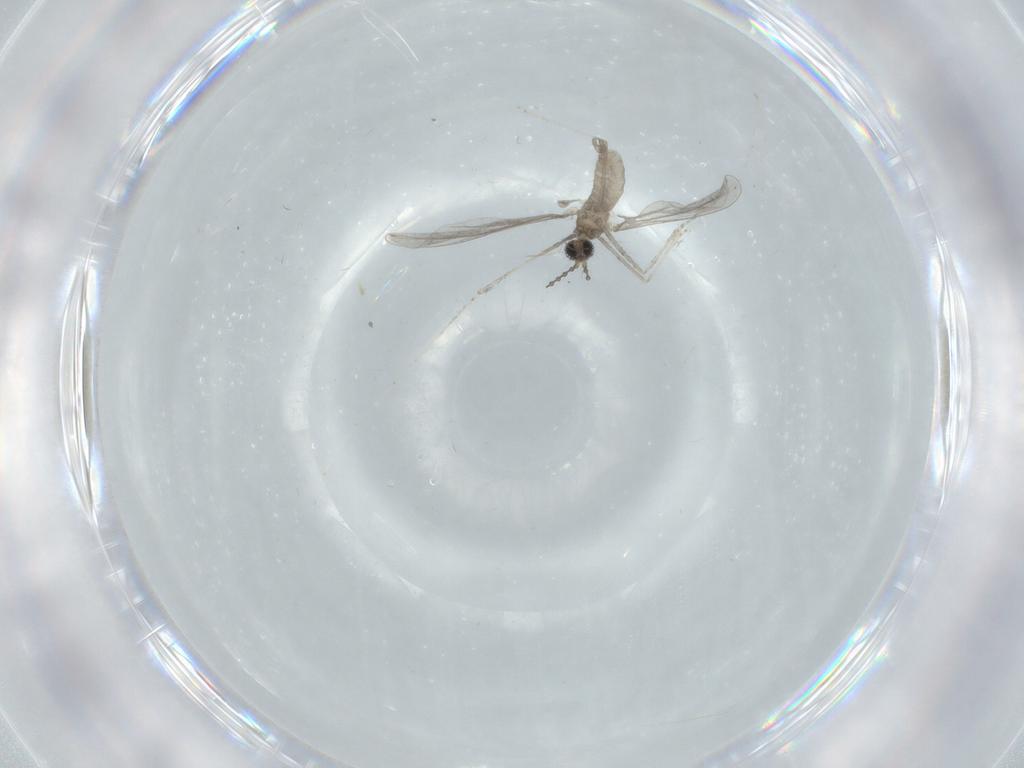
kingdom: Animalia
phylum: Arthropoda
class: Insecta
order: Diptera
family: Cecidomyiidae
